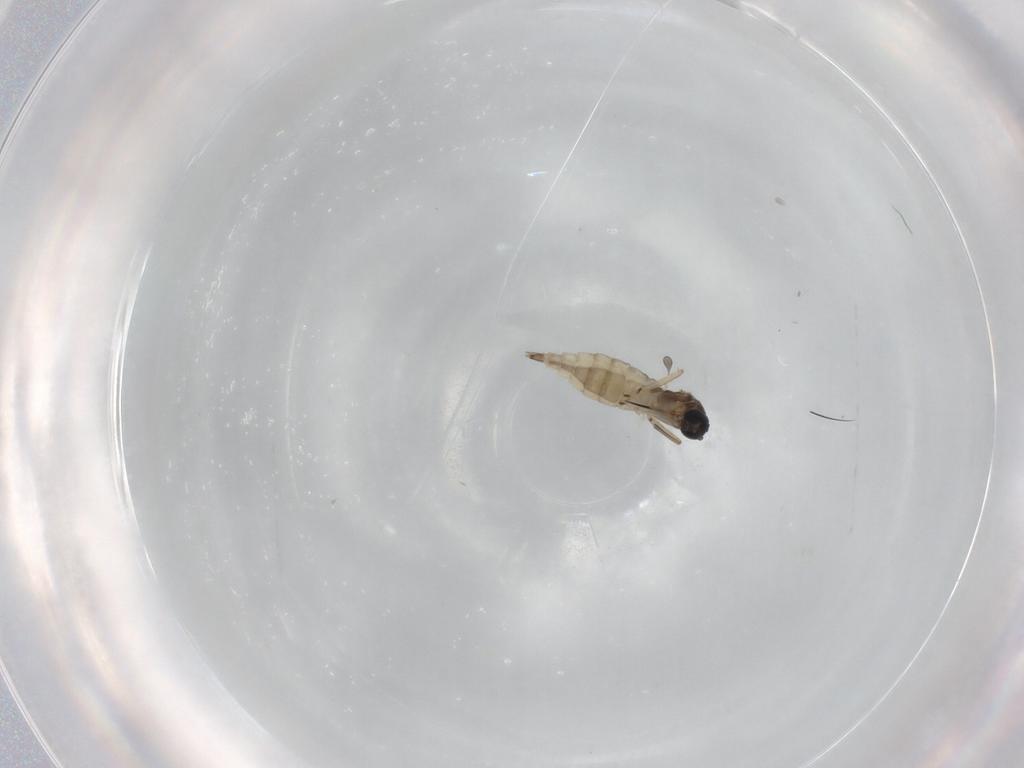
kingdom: Animalia
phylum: Arthropoda
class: Insecta
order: Diptera
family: Sciaridae
